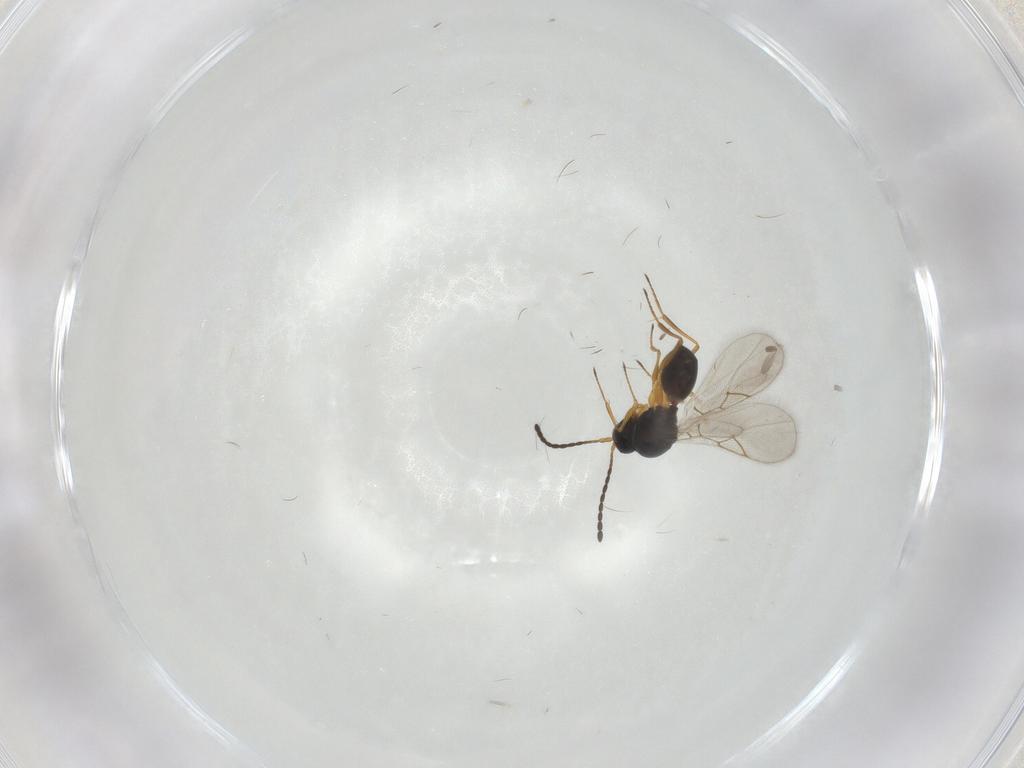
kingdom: Animalia
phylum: Arthropoda
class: Insecta
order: Hymenoptera
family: Figitidae
